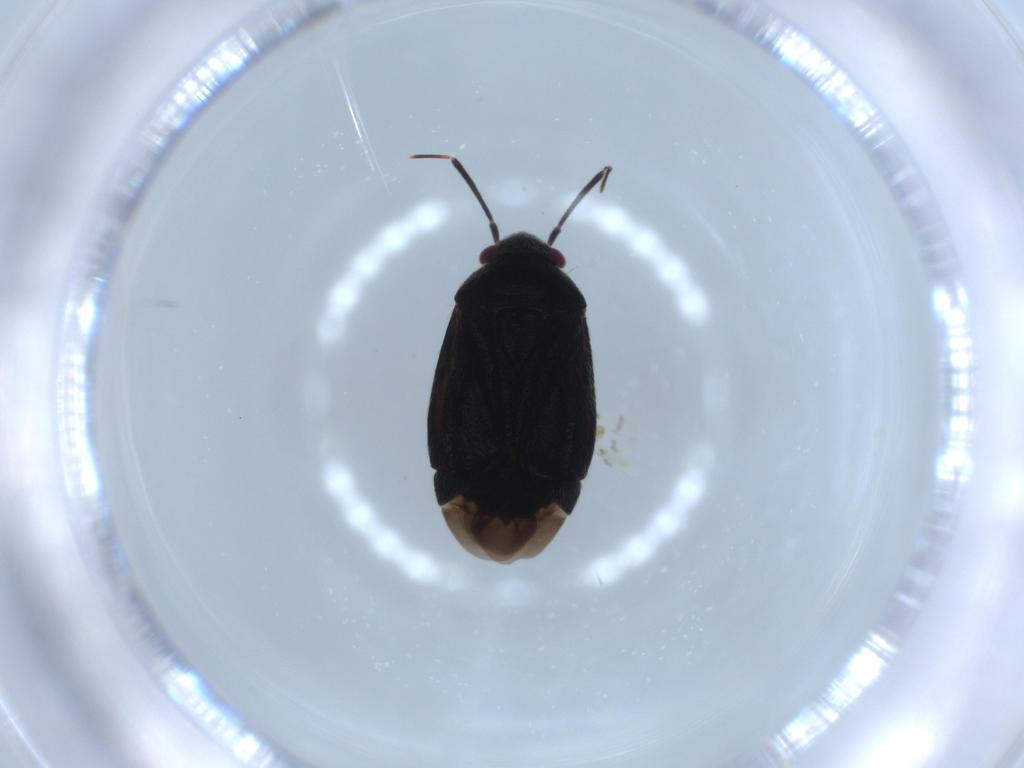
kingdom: Animalia
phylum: Arthropoda
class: Insecta
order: Hemiptera
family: Miridae
